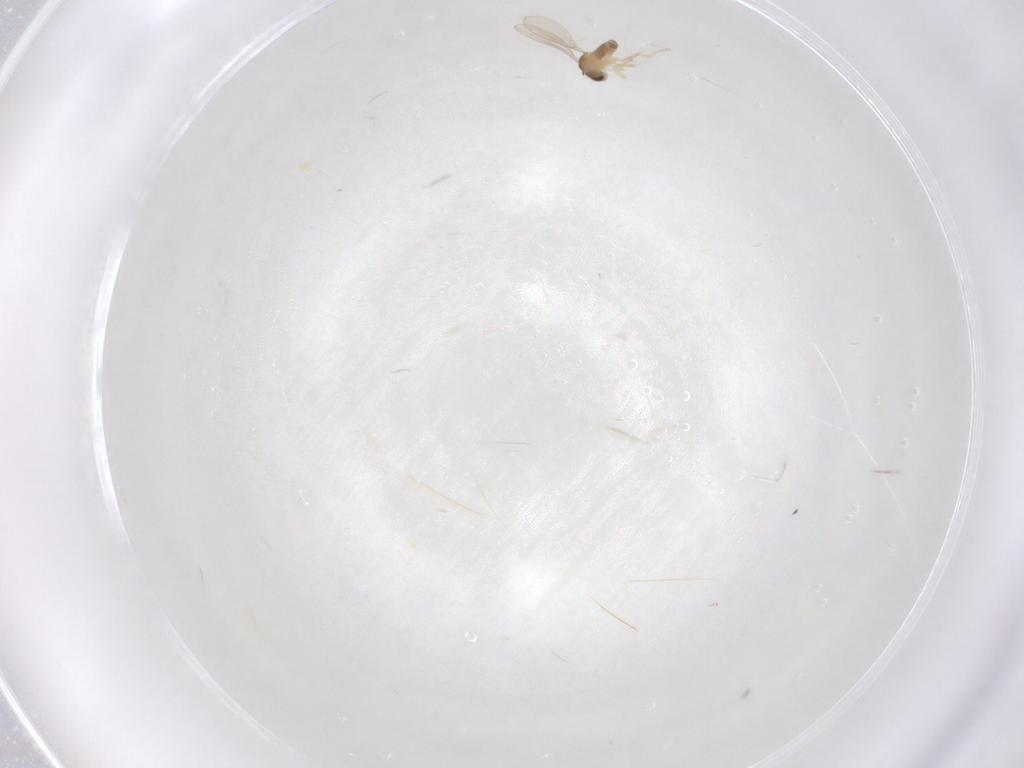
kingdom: Animalia
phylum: Arthropoda
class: Insecta
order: Diptera
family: Cecidomyiidae
